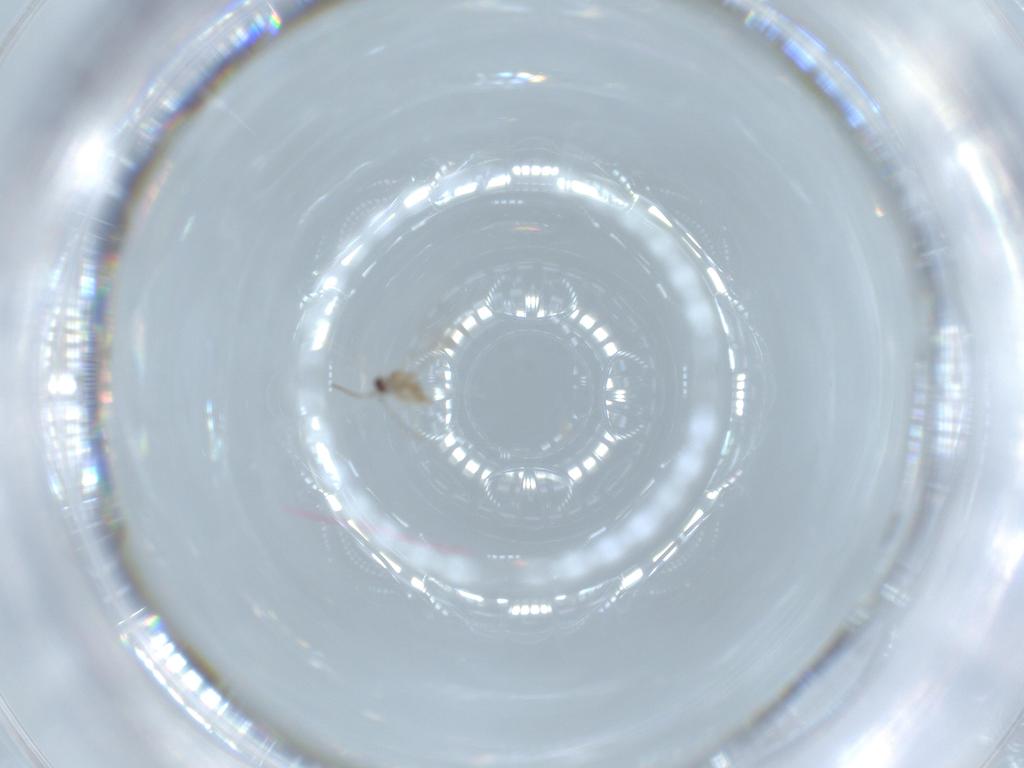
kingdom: Animalia
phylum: Arthropoda
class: Insecta
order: Diptera
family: Cecidomyiidae
